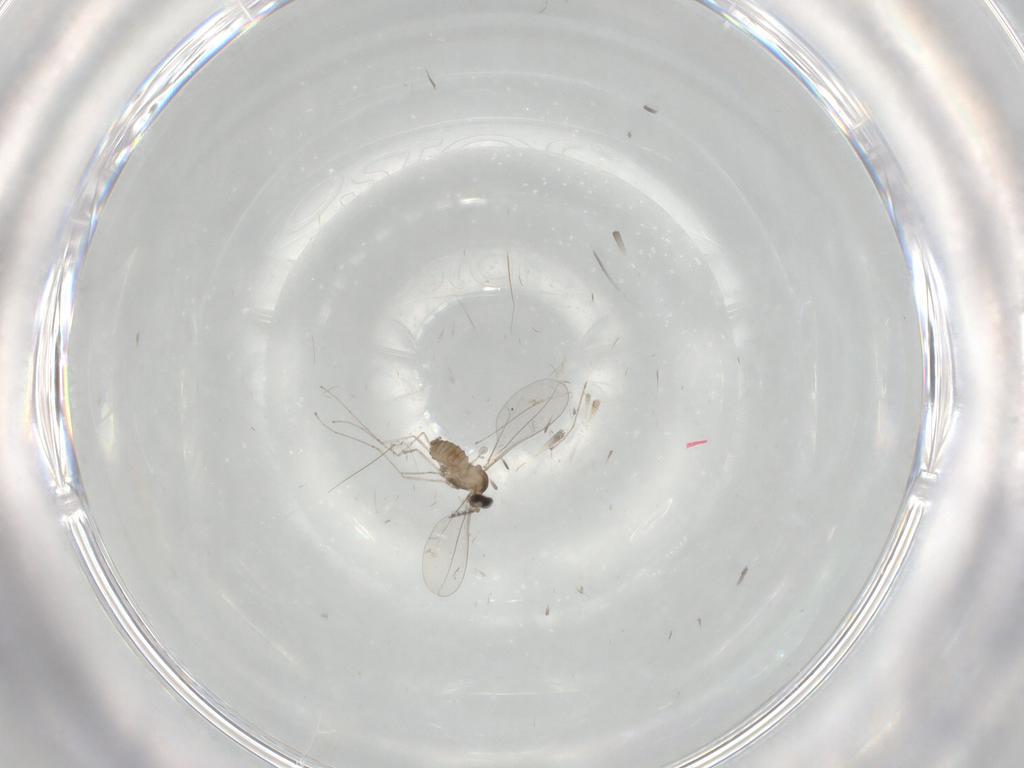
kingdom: Animalia
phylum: Arthropoda
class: Insecta
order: Diptera
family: Cecidomyiidae
